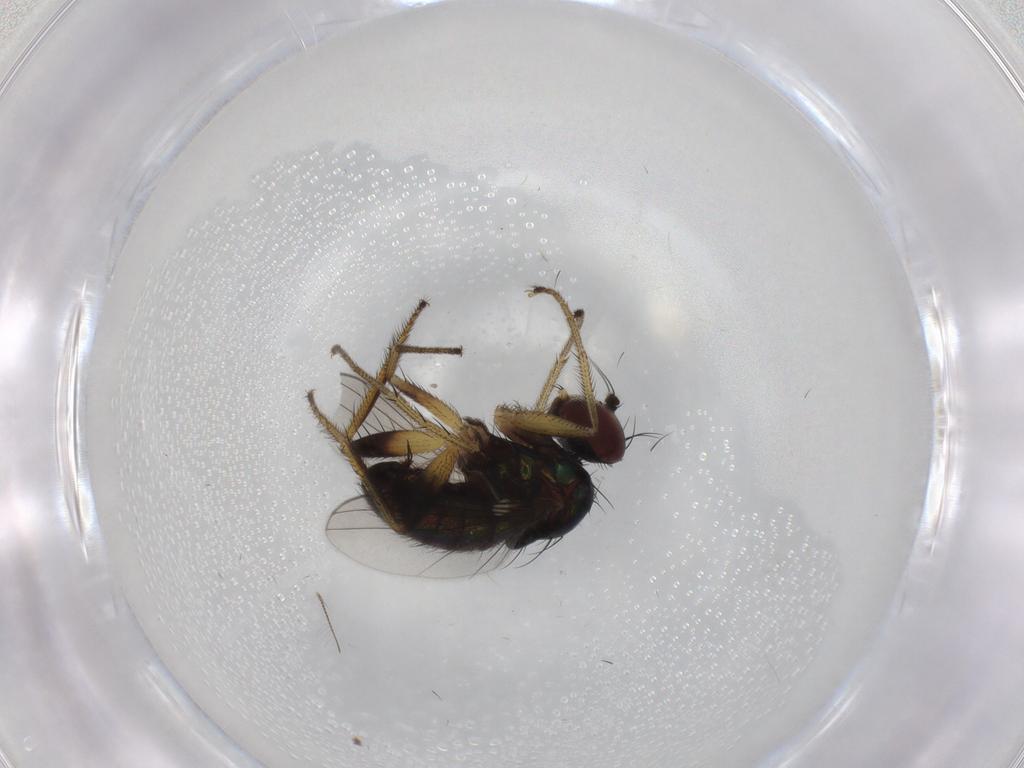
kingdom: Animalia
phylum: Arthropoda
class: Insecta
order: Diptera
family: Dolichopodidae
